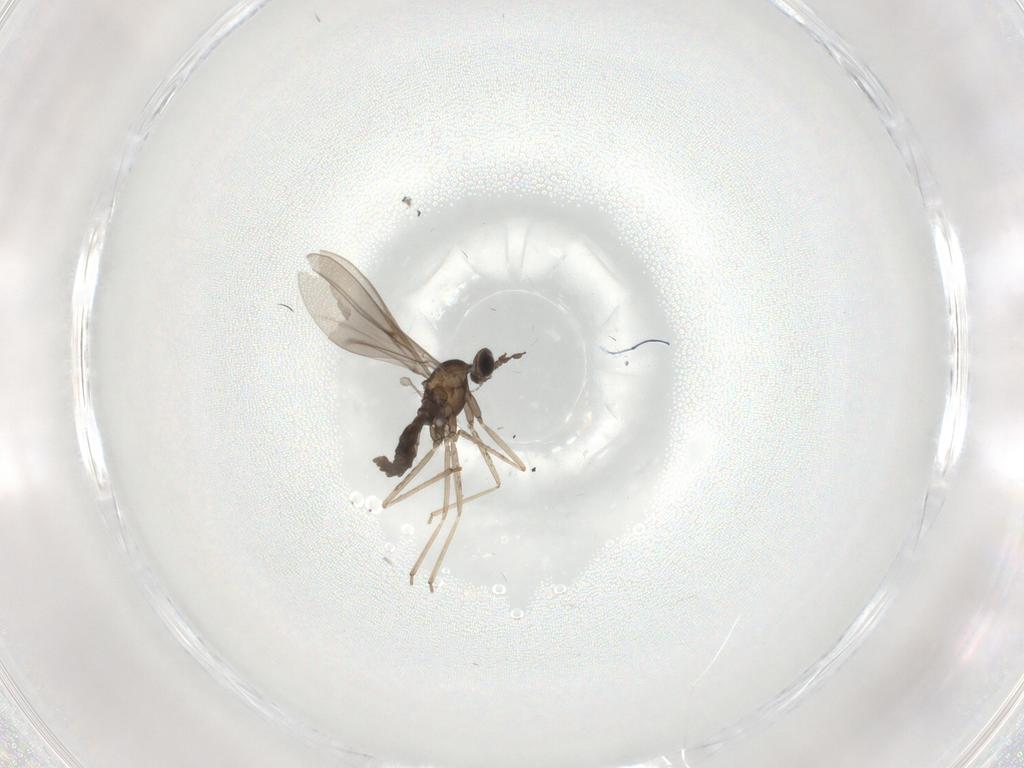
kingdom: Animalia
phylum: Arthropoda
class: Insecta
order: Diptera
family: Cecidomyiidae
